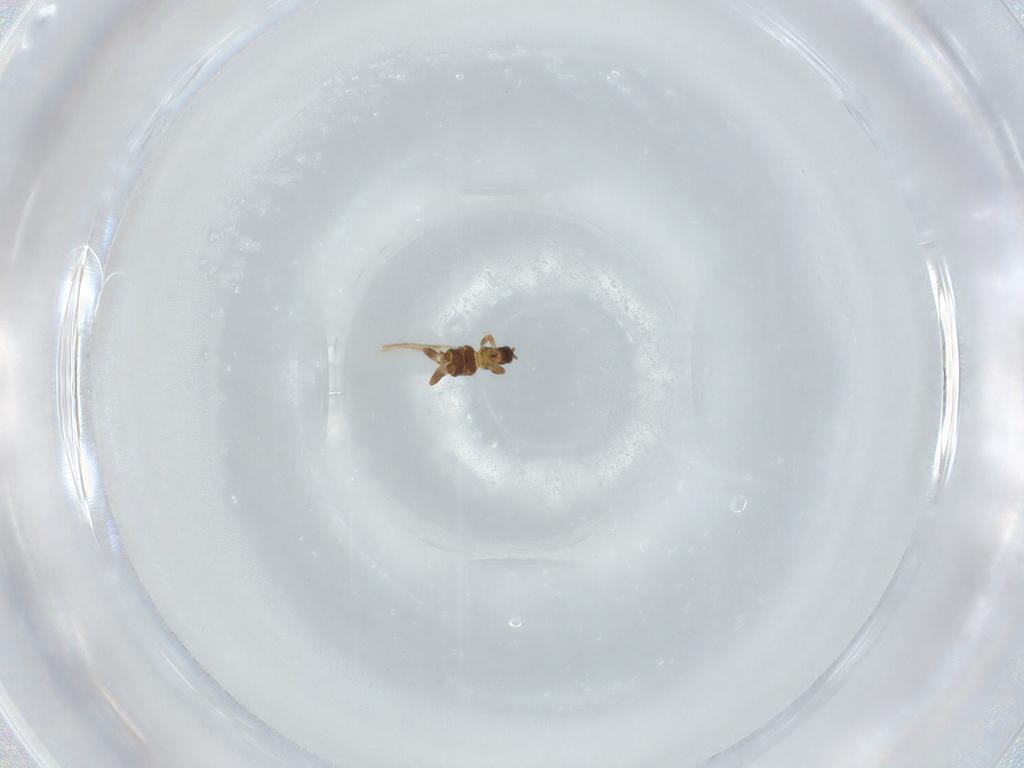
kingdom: Animalia
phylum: Arthropoda
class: Insecta
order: Thysanoptera
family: Thripidae
